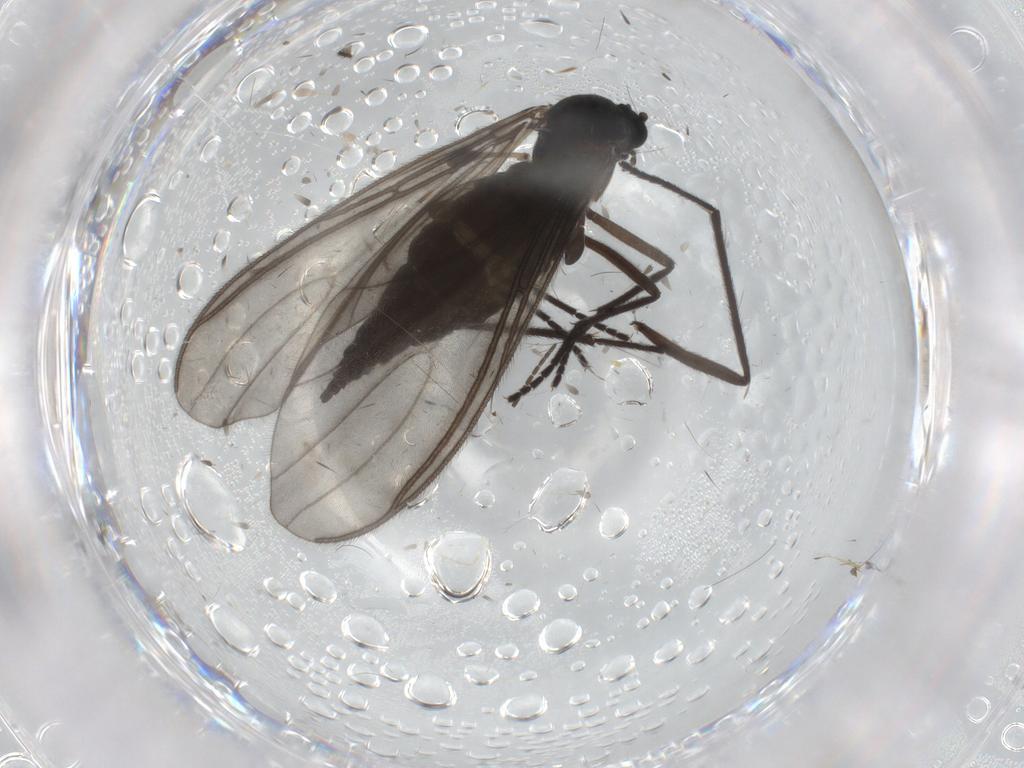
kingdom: Animalia
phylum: Arthropoda
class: Insecta
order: Diptera
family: Sciaridae
